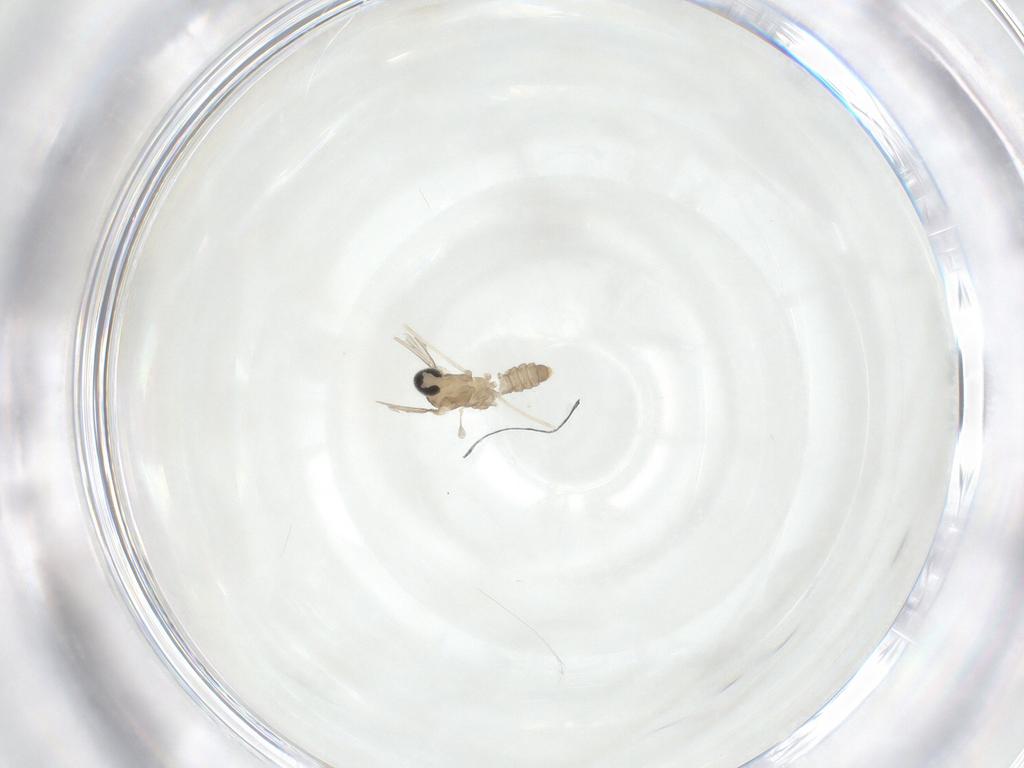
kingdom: Animalia
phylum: Arthropoda
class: Insecta
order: Diptera
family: Cecidomyiidae
